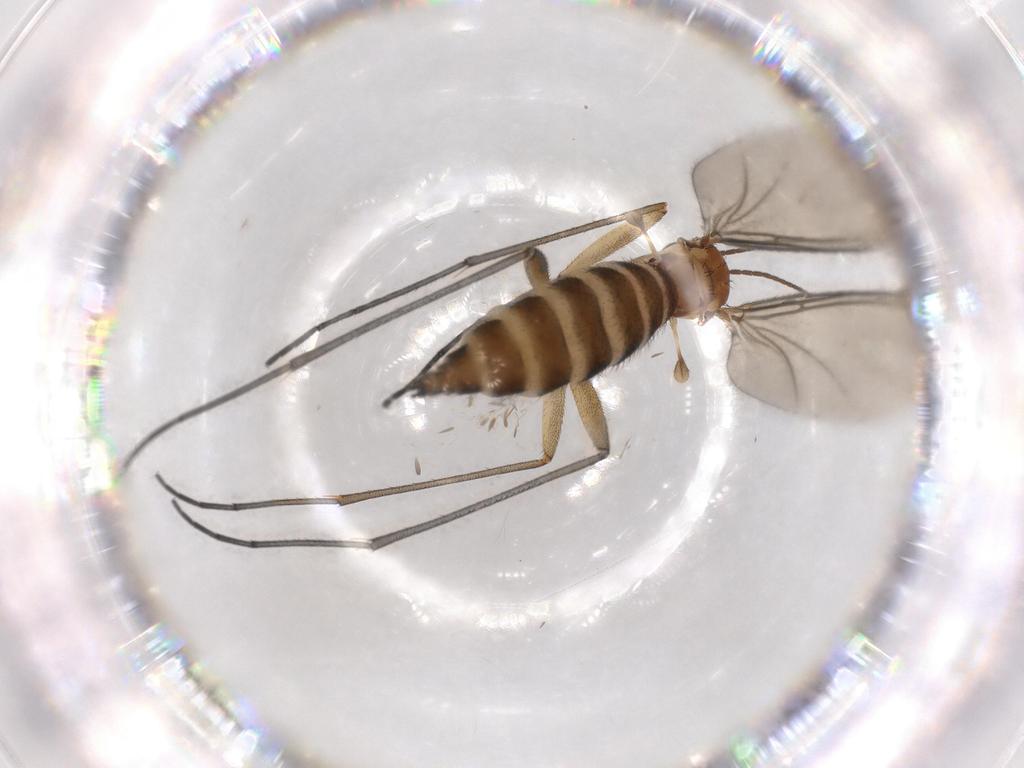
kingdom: Animalia
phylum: Arthropoda
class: Insecta
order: Diptera
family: Sciaridae
